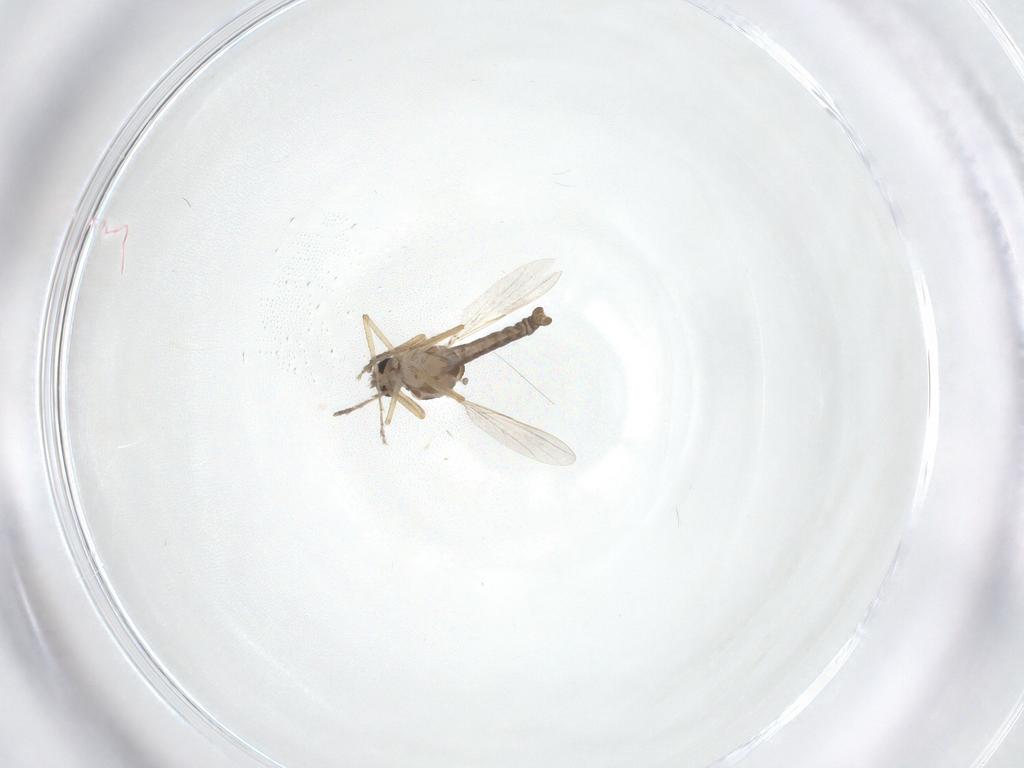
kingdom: Animalia
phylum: Arthropoda
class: Insecta
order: Diptera
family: Ceratopogonidae
